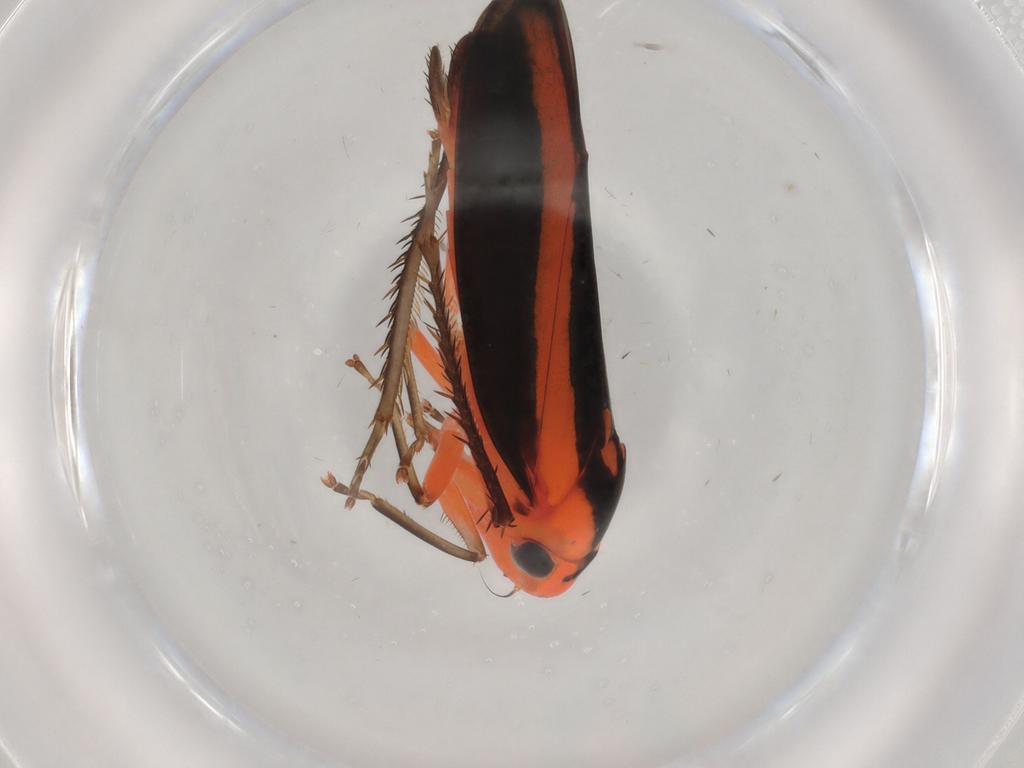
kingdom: Animalia
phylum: Arthropoda
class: Insecta
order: Hemiptera
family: Cicadellidae
